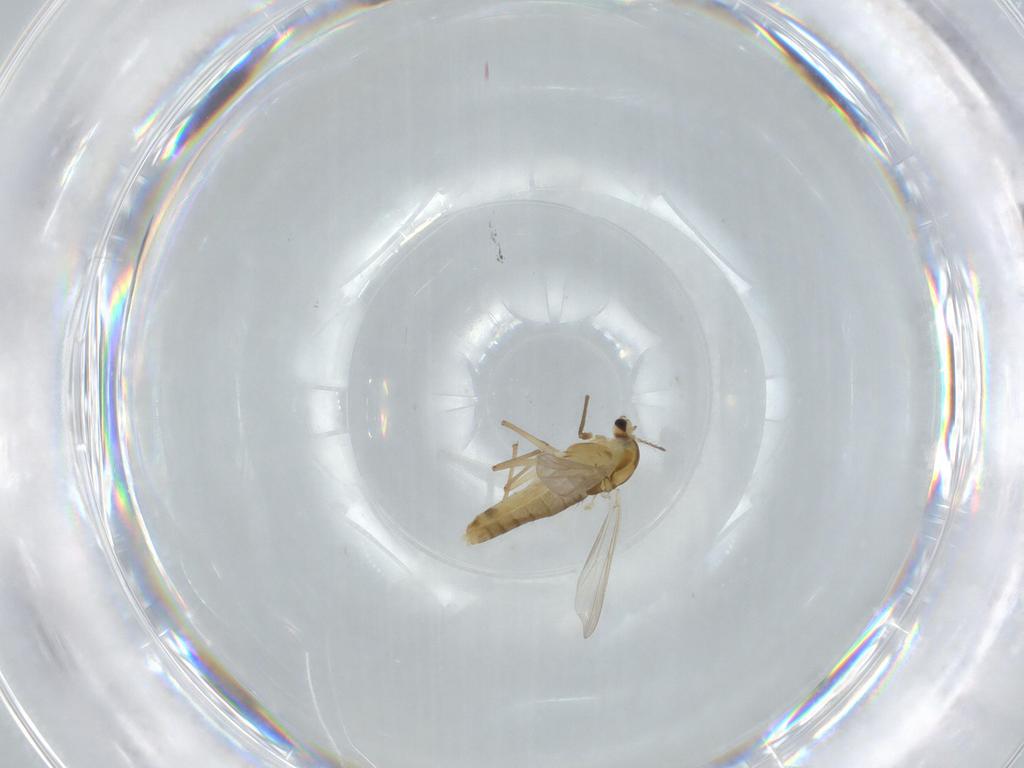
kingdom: Animalia
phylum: Arthropoda
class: Insecta
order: Diptera
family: Chironomidae
